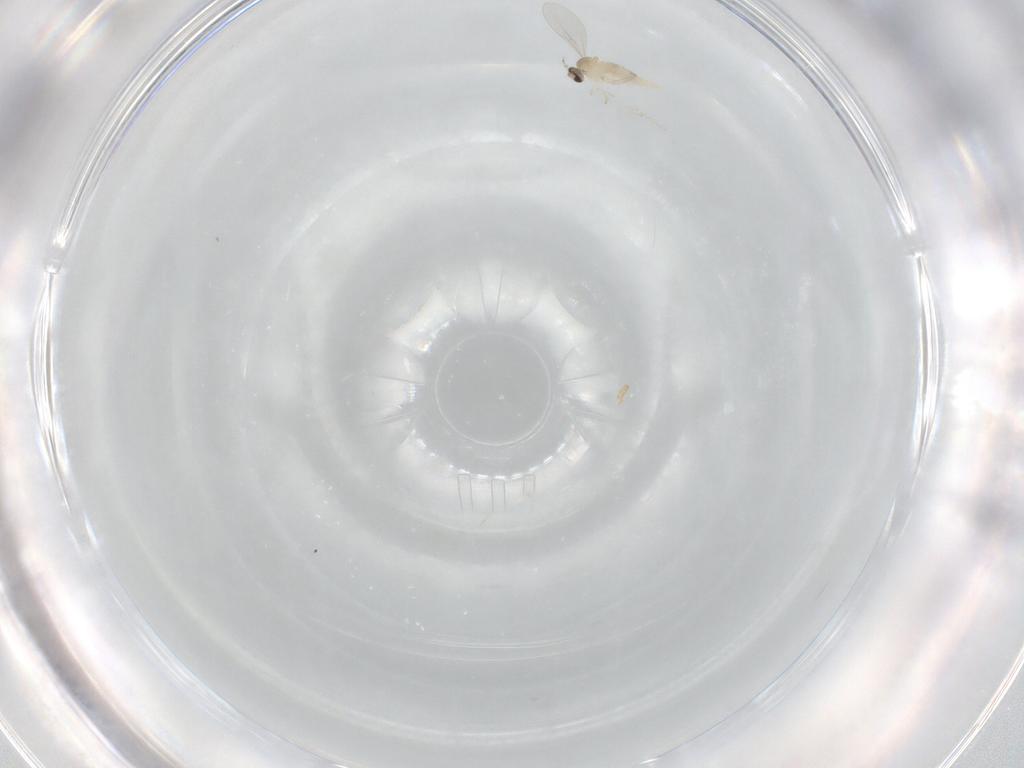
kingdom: Animalia
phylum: Arthropoda
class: Insecta
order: Diptera
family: Cecidomyiidae
